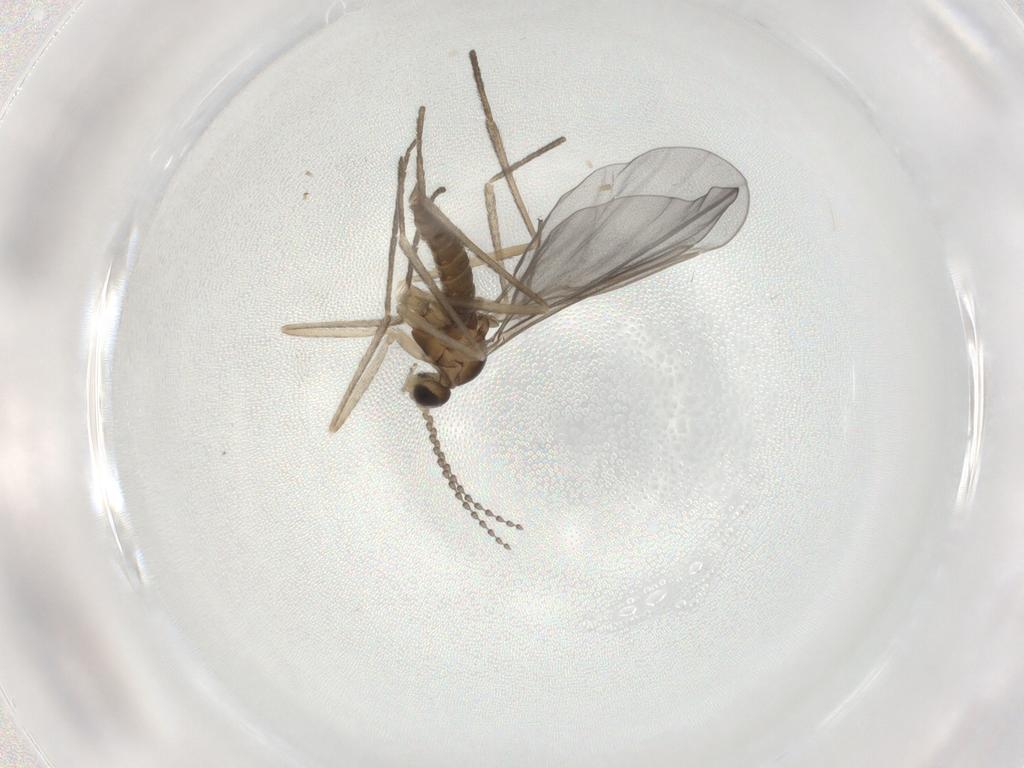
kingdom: Animalia
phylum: Arthropoda
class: Insecta
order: Diptera
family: Cecidomyiidae
